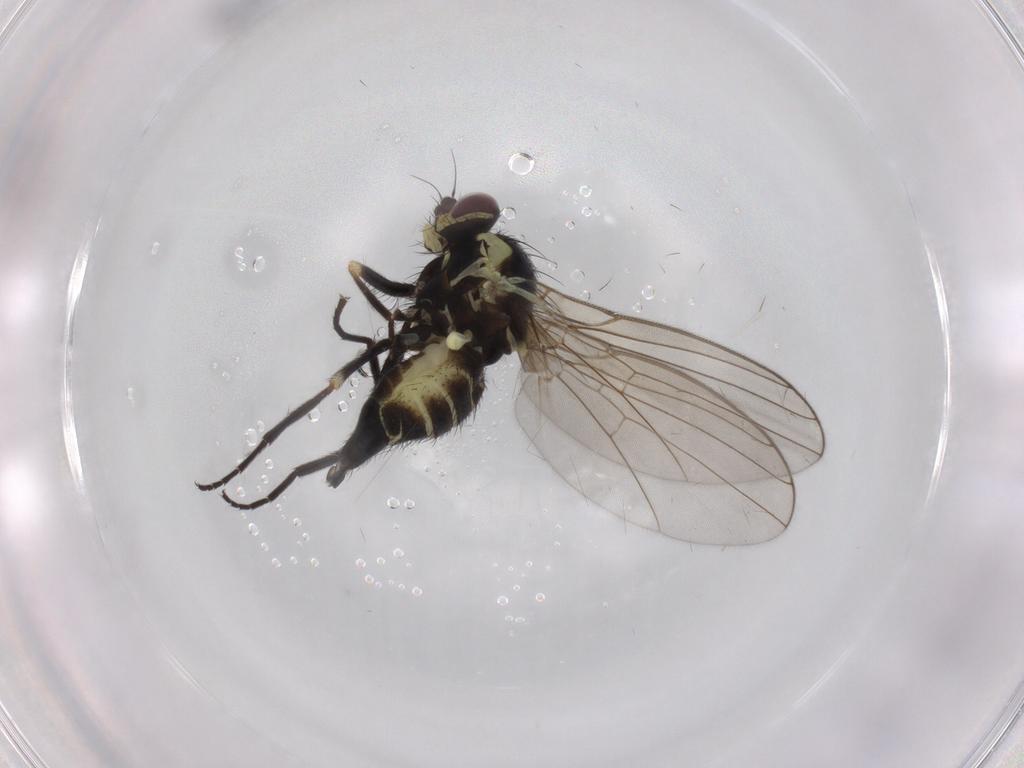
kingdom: Animalia
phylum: Arthropoda
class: Insecta
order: Diptera
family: Agromyzidae
